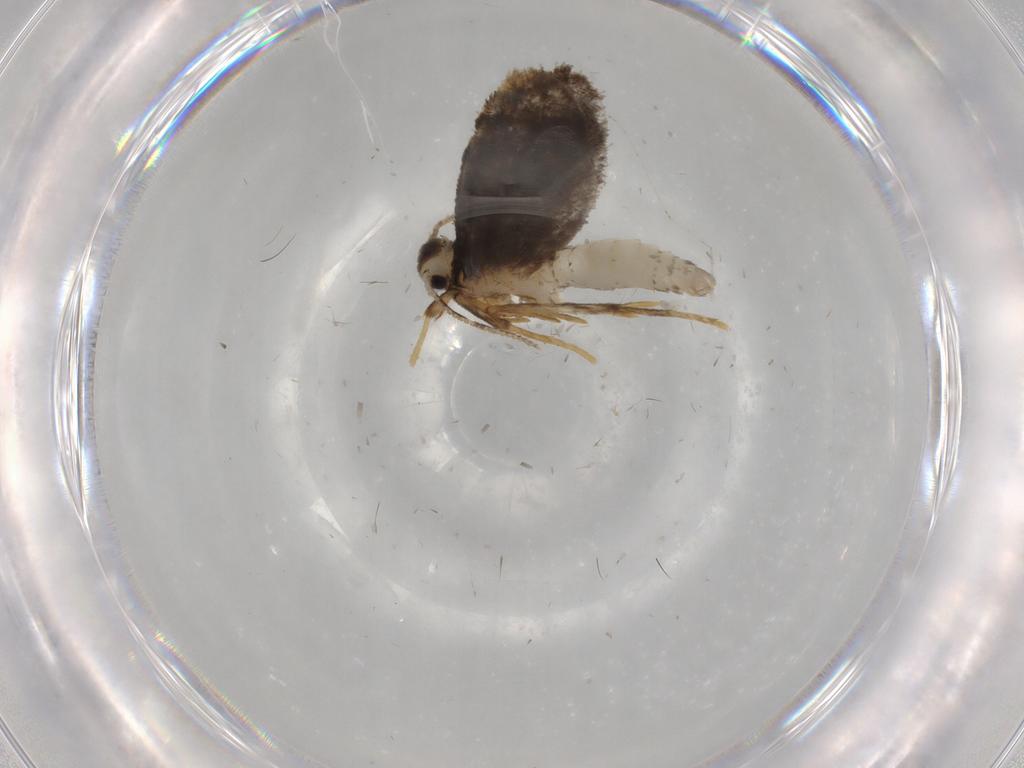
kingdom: Animalia
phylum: Arthropoda
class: Insecta
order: Lepidoptera
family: Psychidae
